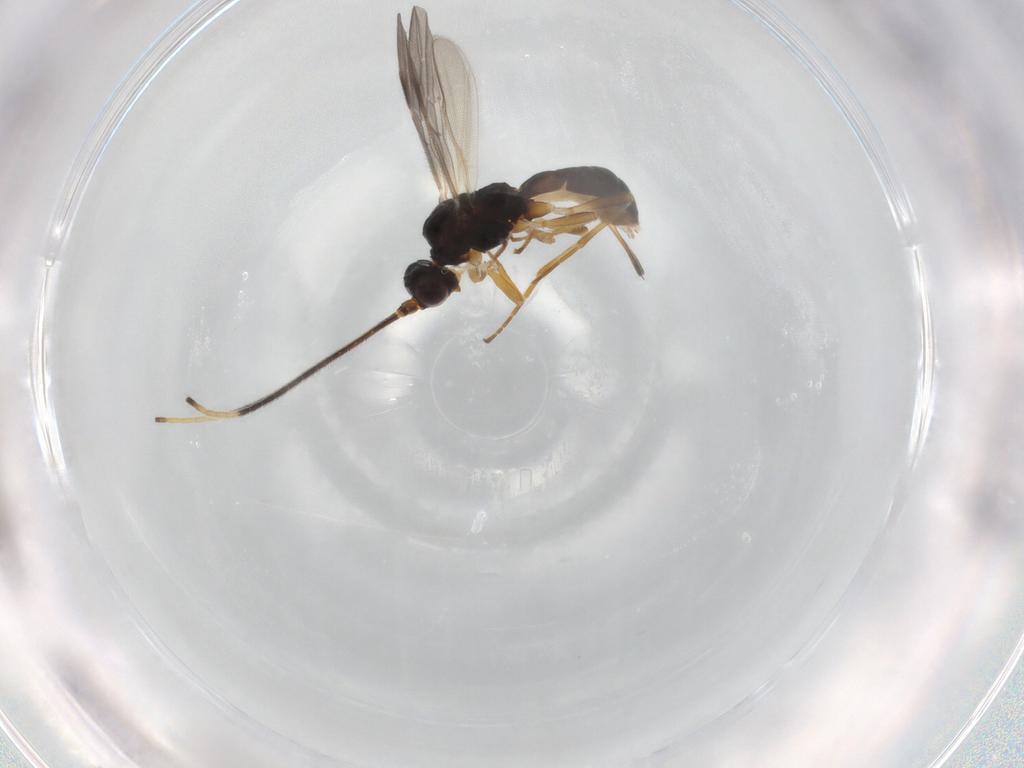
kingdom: Animalia
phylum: Arthropoda
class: Insecta
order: Hymenoptera
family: Braconidae
